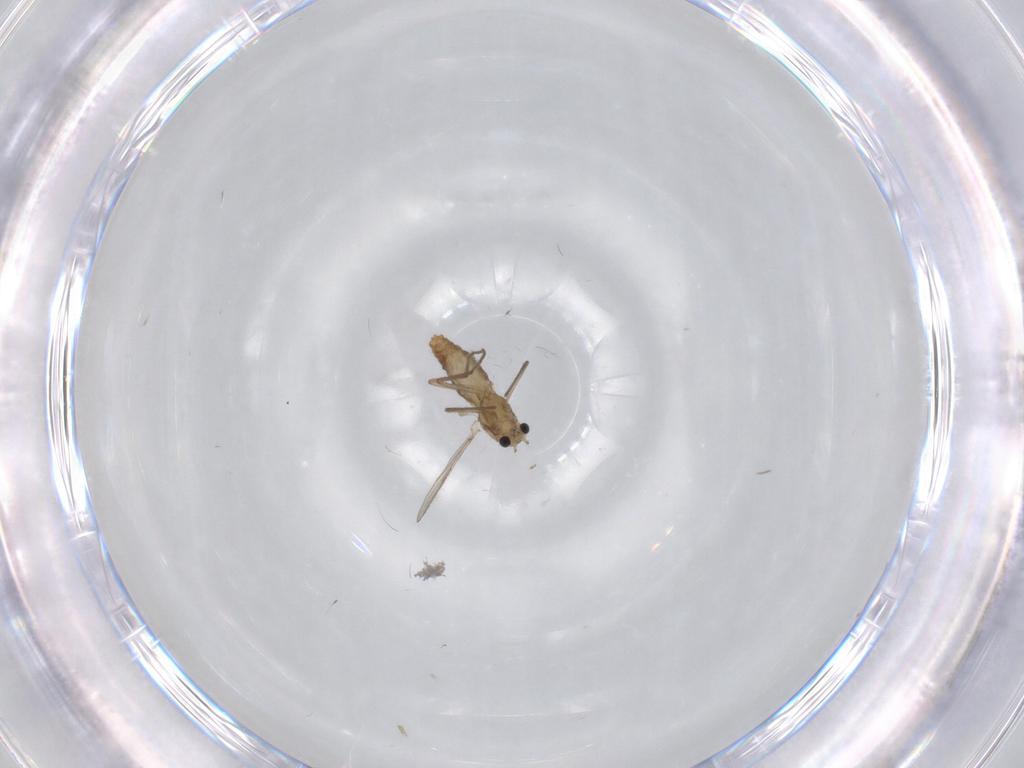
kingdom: Animalia
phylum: Arthropoda
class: Insecta
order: Diptera
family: Chironomidae
